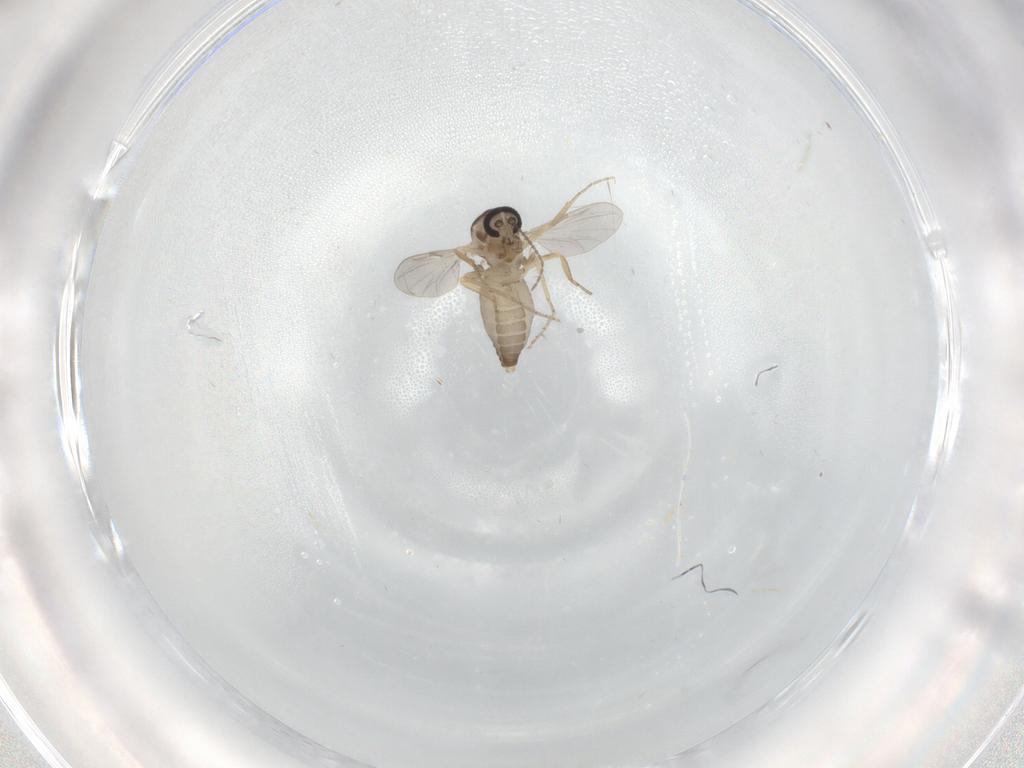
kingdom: Animalia
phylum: Arthropoda
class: Insecta
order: Diptera
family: Ceratopogonidae
